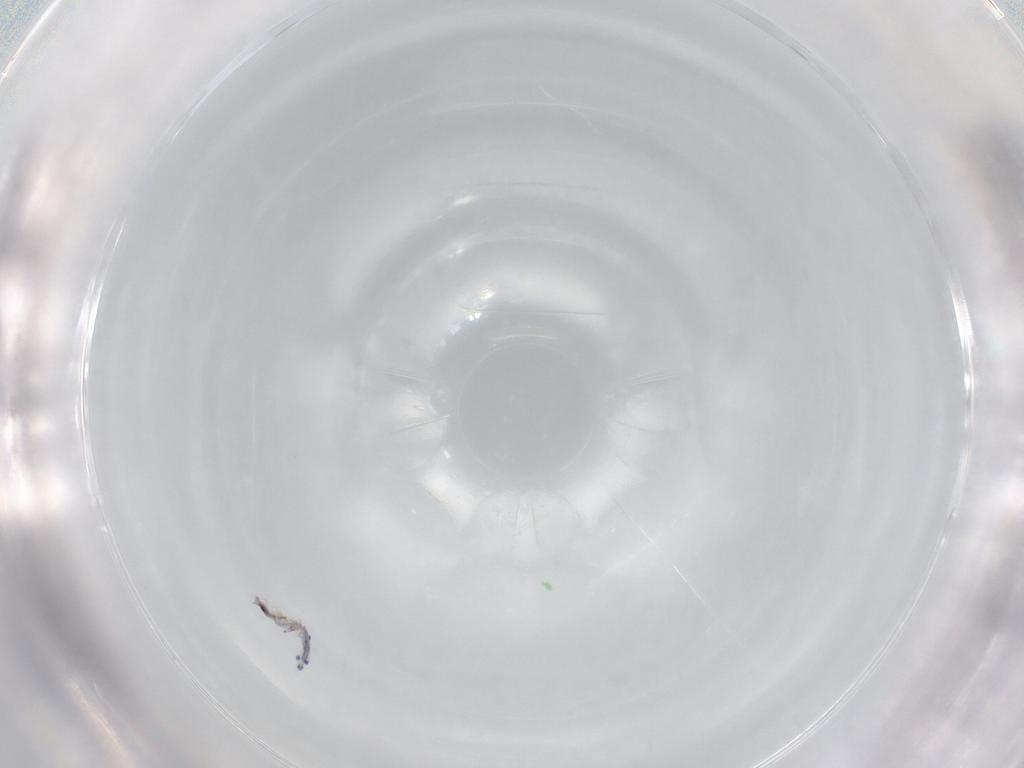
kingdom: Animalia
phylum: Arthropoda
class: Collembola
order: Entomobryomorpha
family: Entomobryidae
